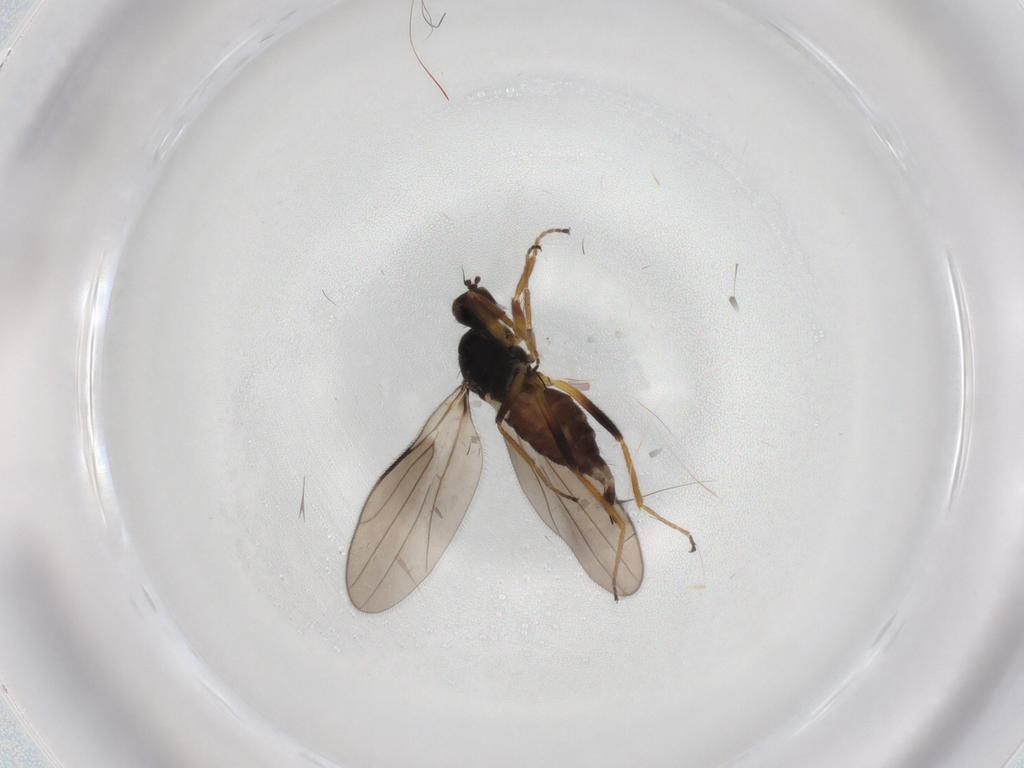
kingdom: Animalia
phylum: Arthropoda
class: Insecta
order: Diptera
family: Hybotidae
